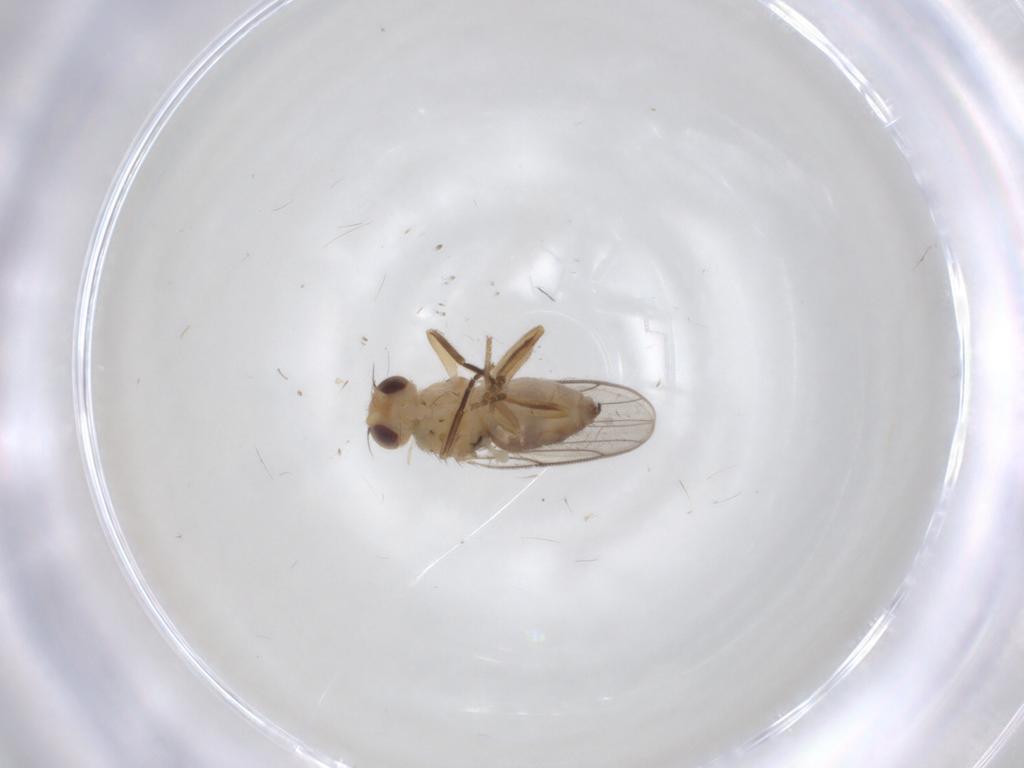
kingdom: Animalia
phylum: Arthropoda
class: Insecta
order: Diptera
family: Chloropidae
